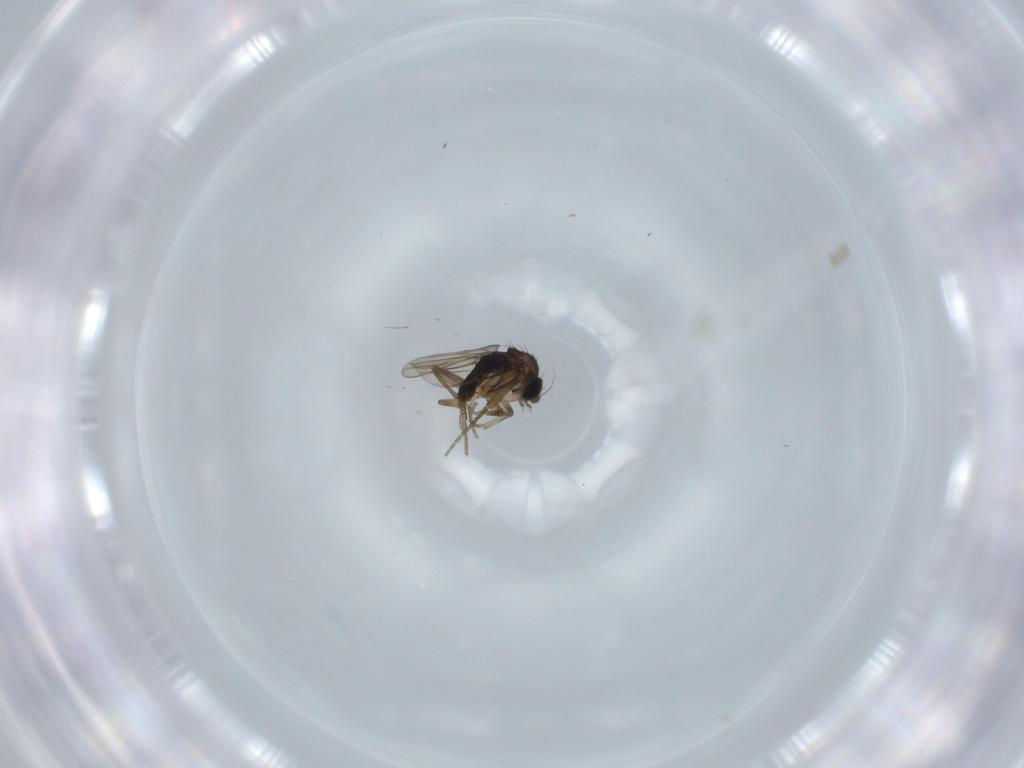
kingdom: Animalia
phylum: Arthropoda
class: Insecta
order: Diptera
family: Phoridae
